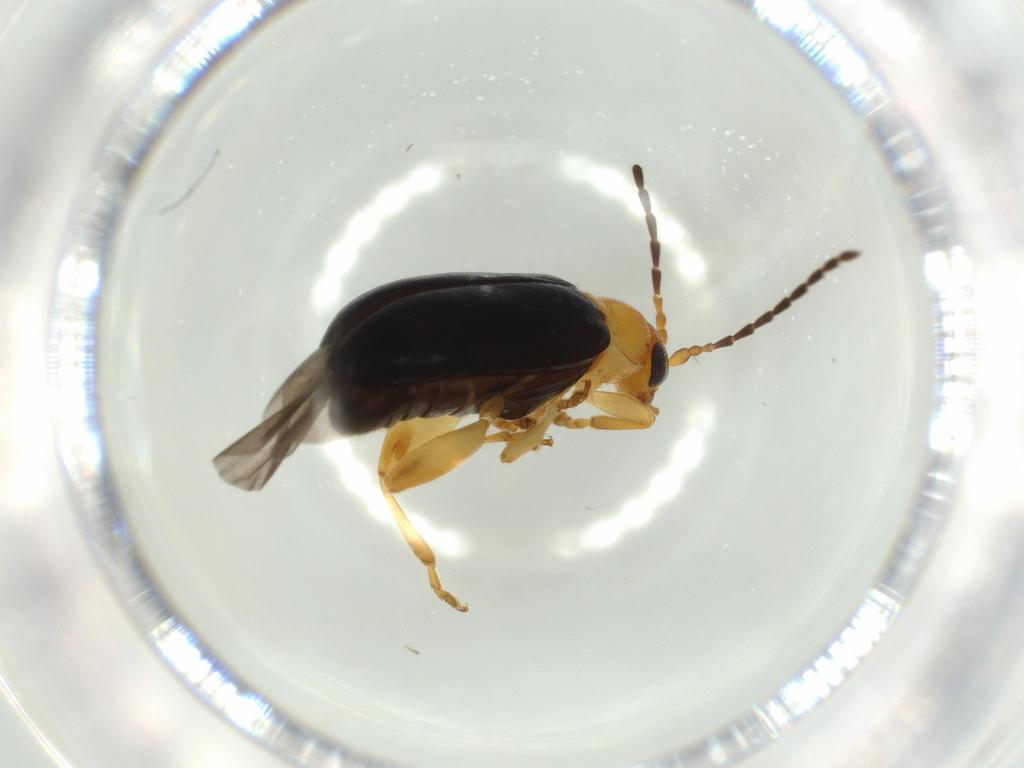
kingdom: Animalia
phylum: Arthropoda
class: Insecta
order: Coleoptera
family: Chrysomelidae
